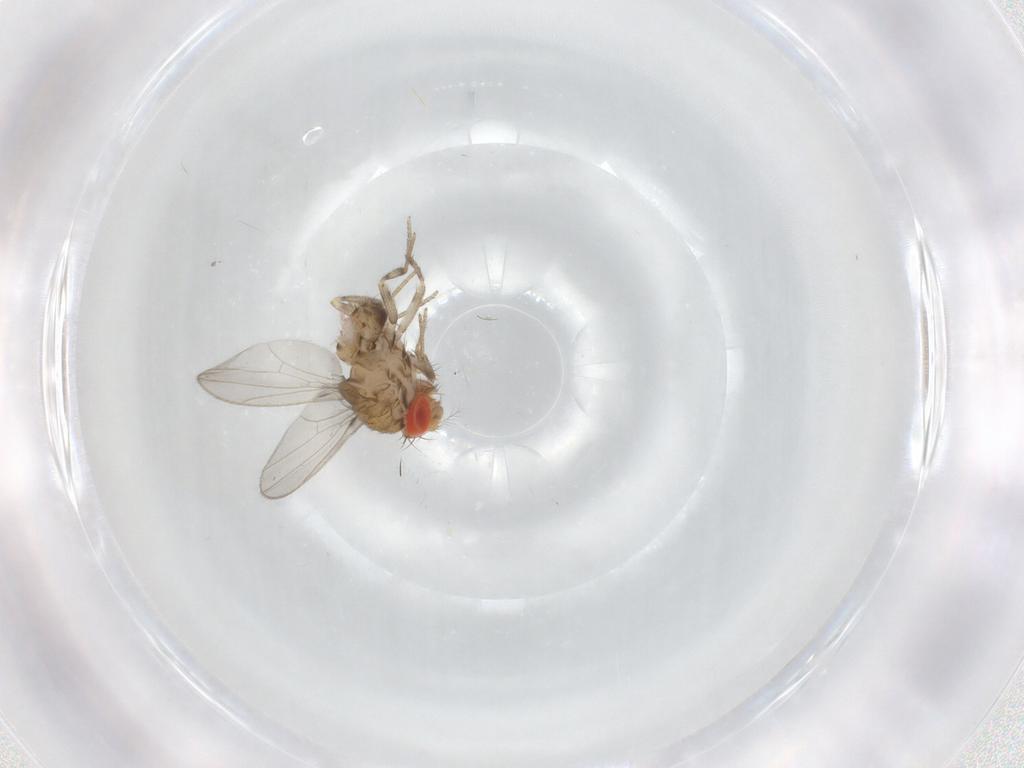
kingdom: Animalia
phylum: Arthropoda
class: Insecta
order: Diptera
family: Drosophilidae
